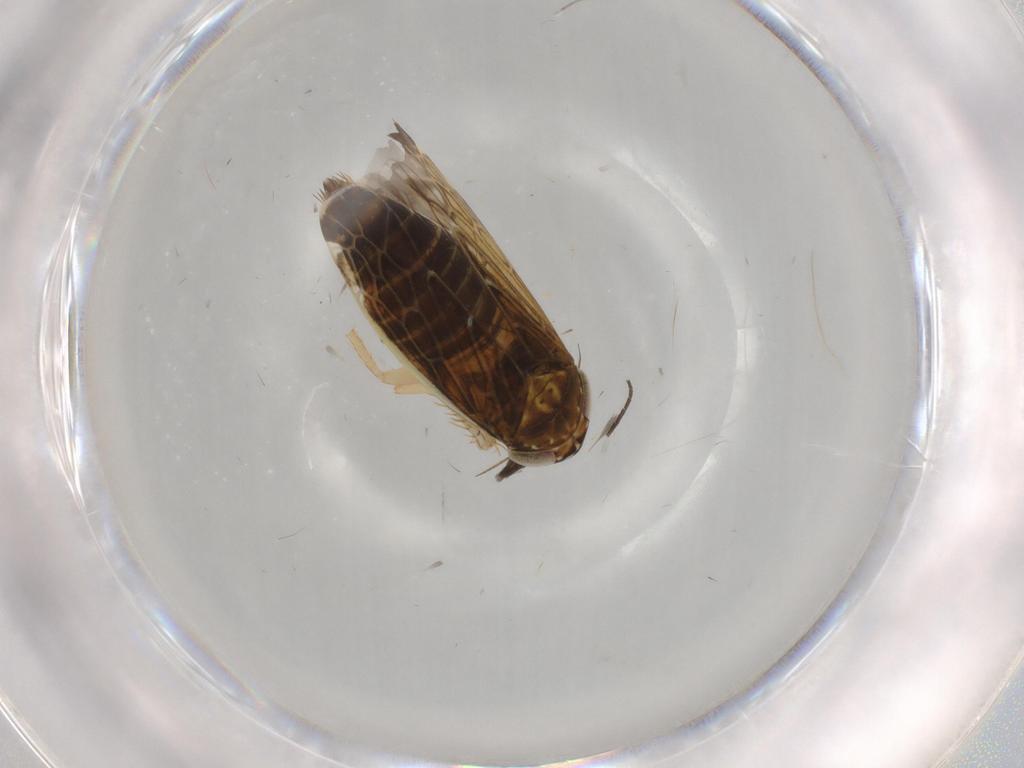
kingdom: Animalia
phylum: Arthropoda
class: Insecta
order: Hemiptera
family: Cicadellidae
